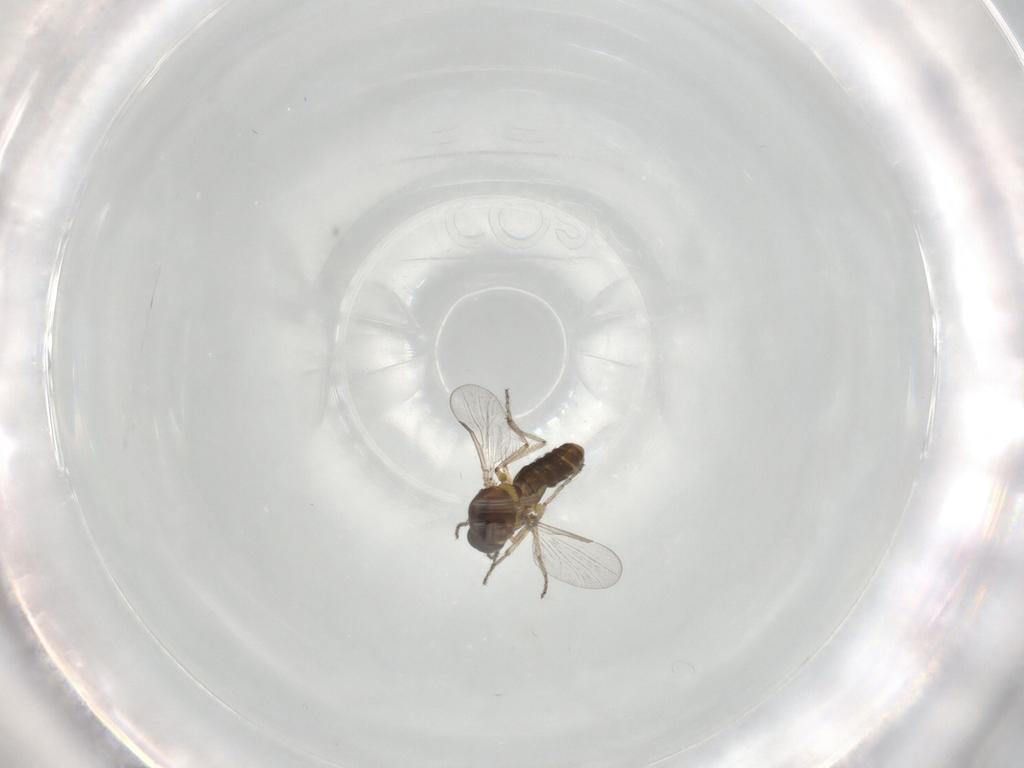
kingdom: Animalia
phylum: Arthropoda
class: Insecta
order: Diptera
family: Ceratopogonidae
